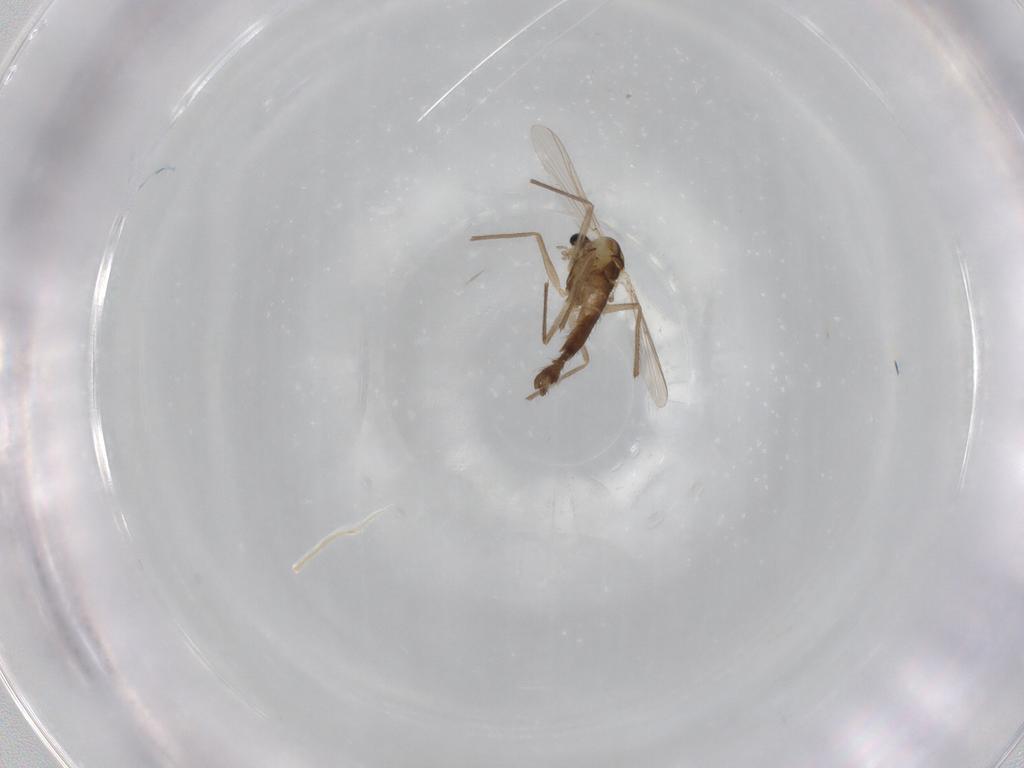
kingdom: Animalia
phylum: Arthropoda
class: Insecta
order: Diptera
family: Chironomidae
